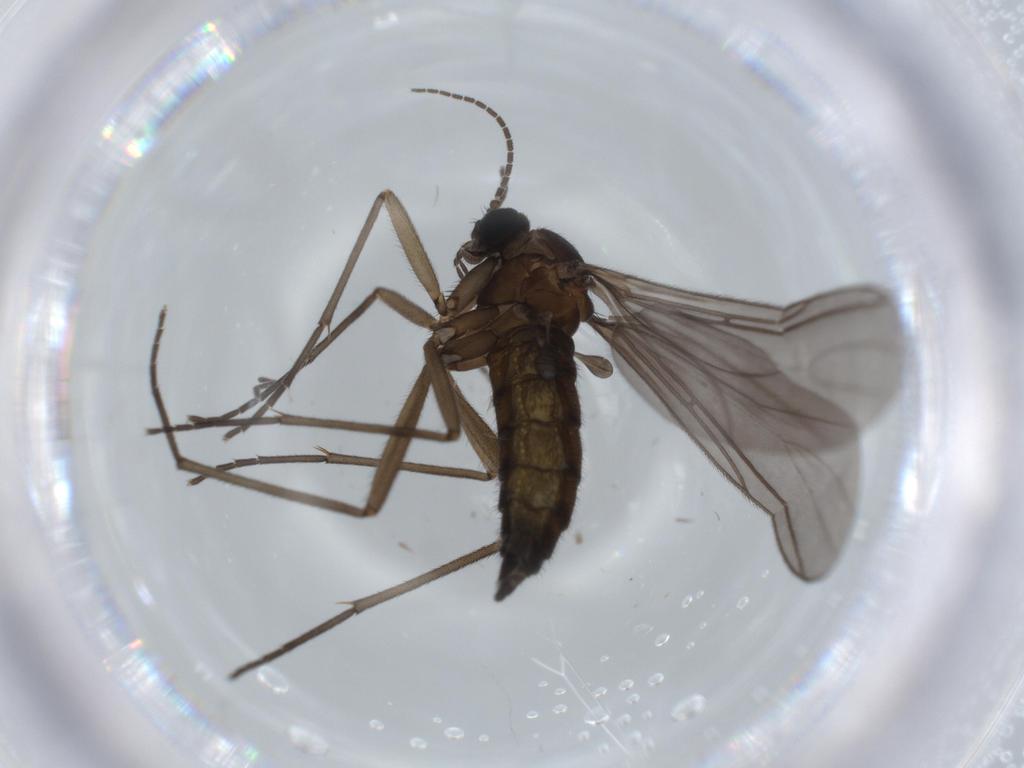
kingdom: Animalia
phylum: Arthropoda
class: Insecta
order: Diptera
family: Sciaridae
